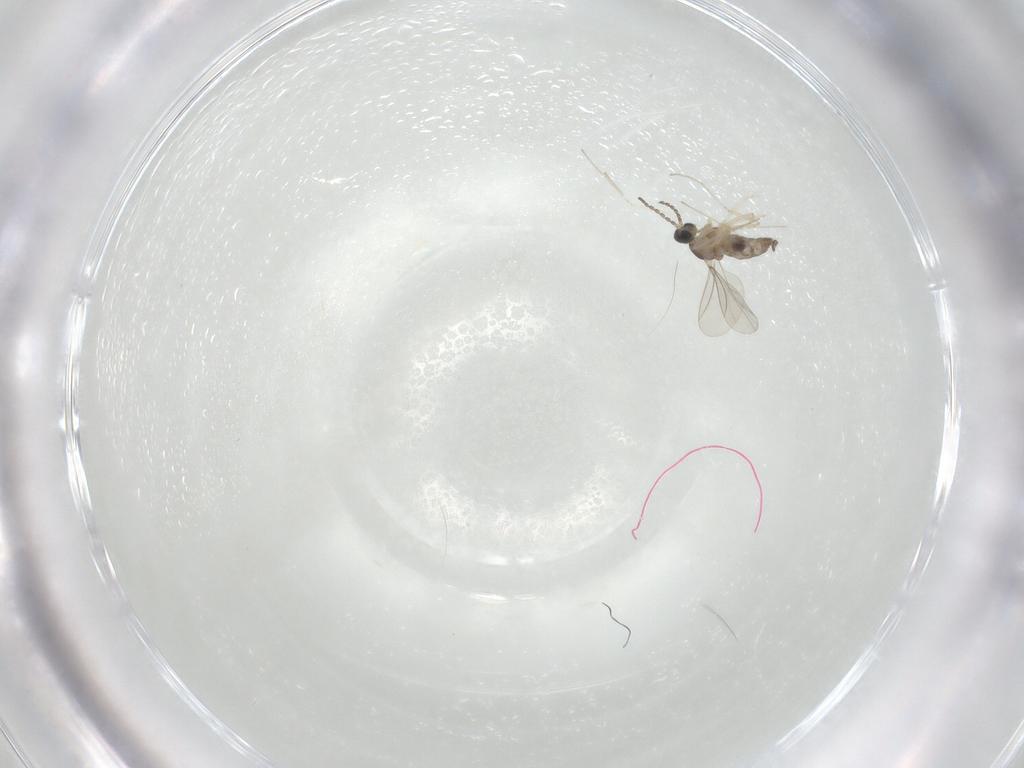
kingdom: Animalia
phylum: Arthropoda
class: Insecta
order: Diptera
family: Cecidomyiidae
